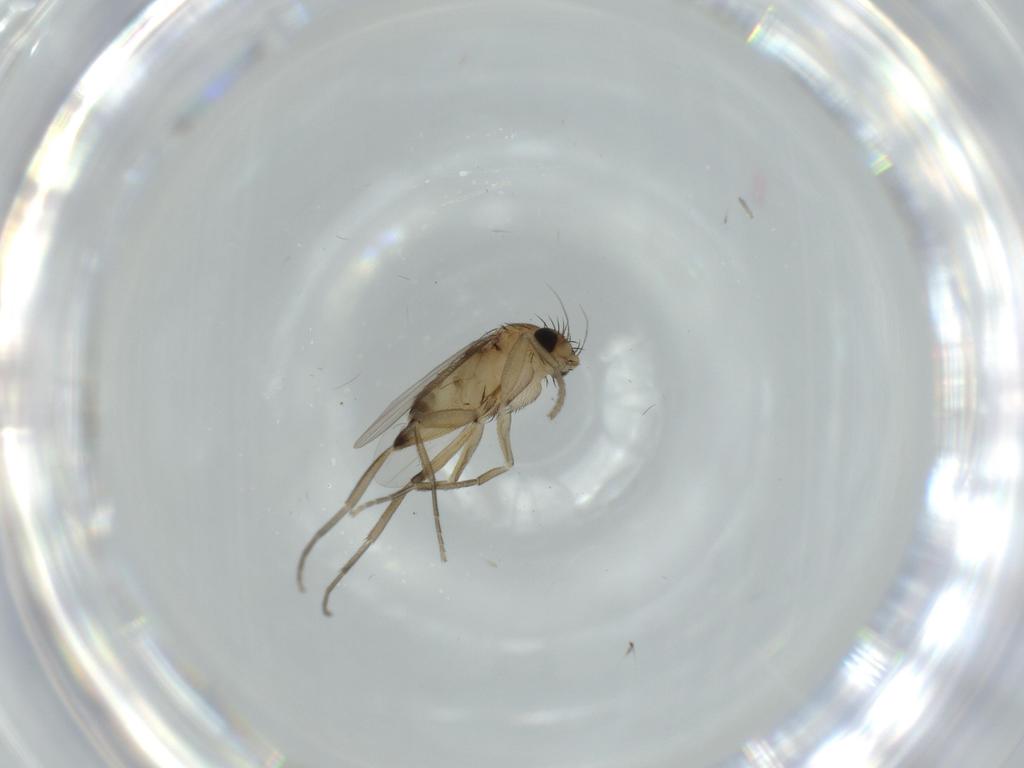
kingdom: Animalia
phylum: Arthropoda
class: Insecta
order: Diptera
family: Phoridae
